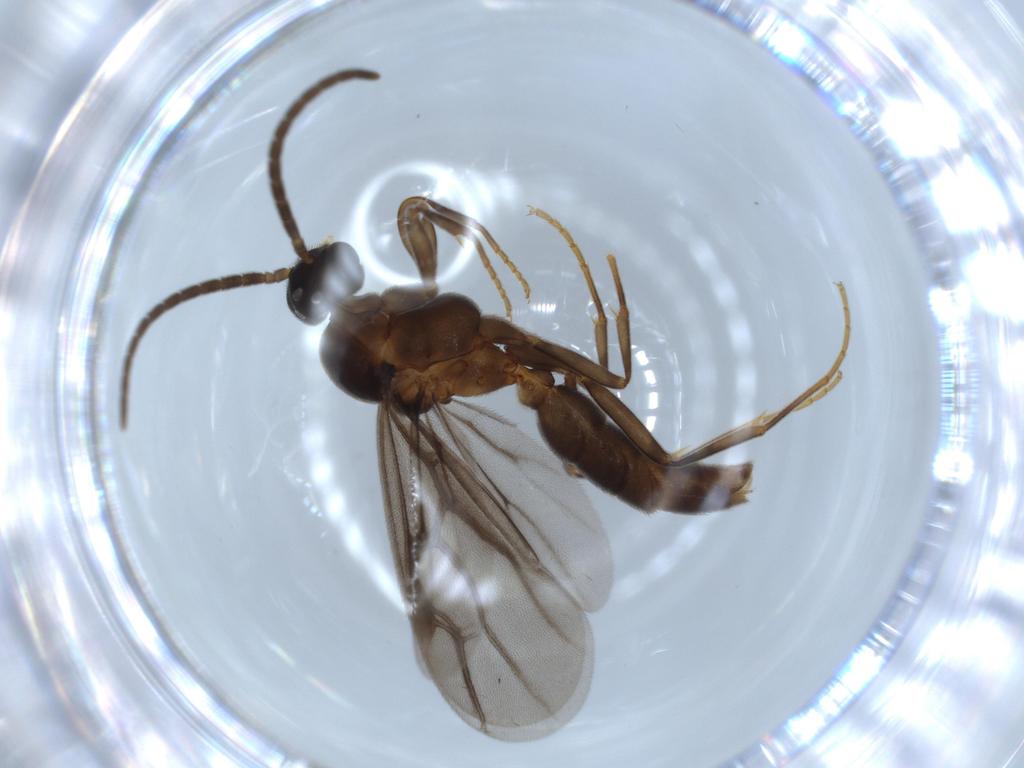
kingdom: Animalia
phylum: Arthropoda
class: Insecta
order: Hymenoptera
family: Formicidae
